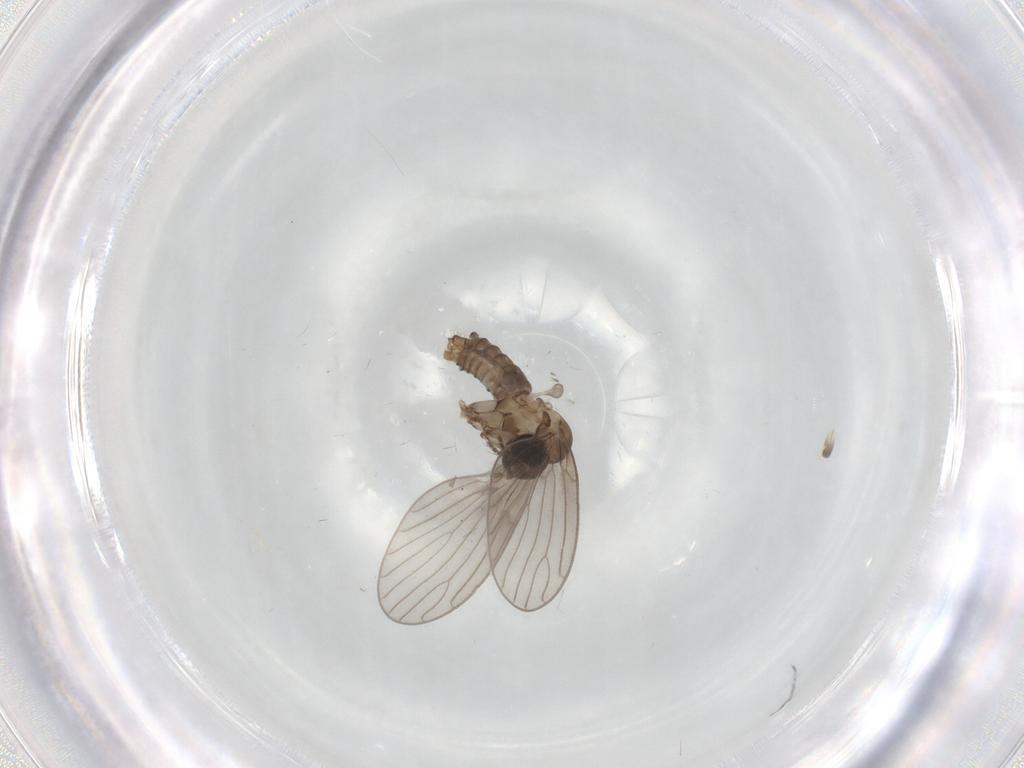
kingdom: Animalia
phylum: Arthropoda
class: Insecta
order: Diptera
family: Psychodidae
